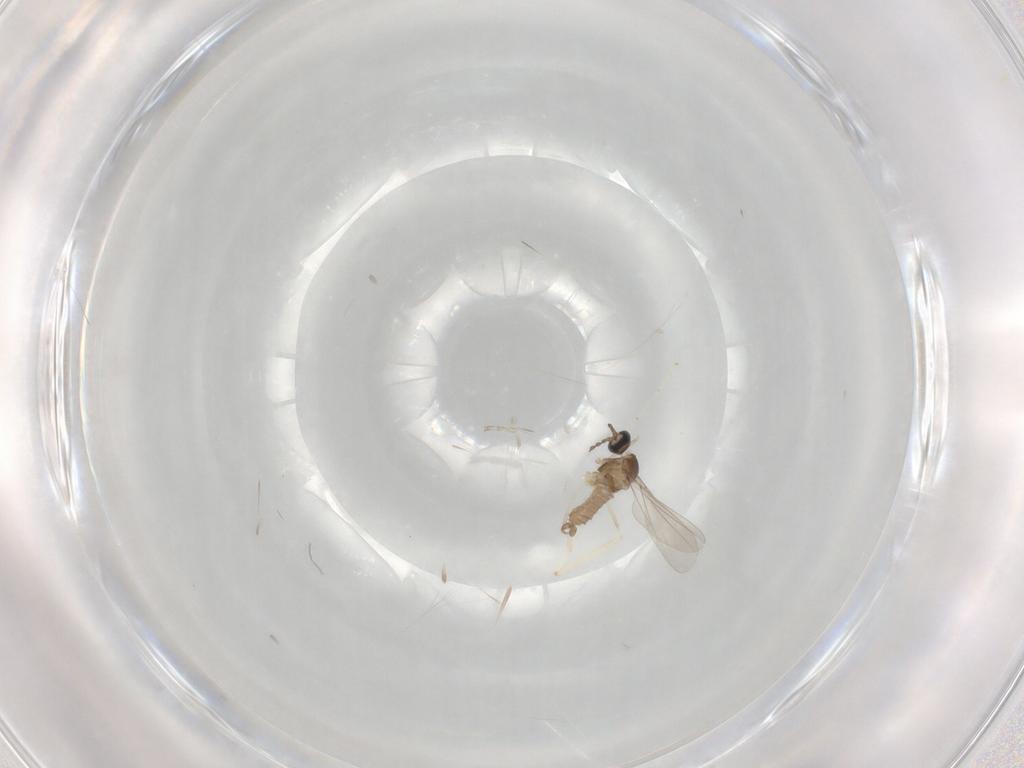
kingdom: Animalia
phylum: Arthropoda
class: Insecta
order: Diptera
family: Cecidomyiidae
